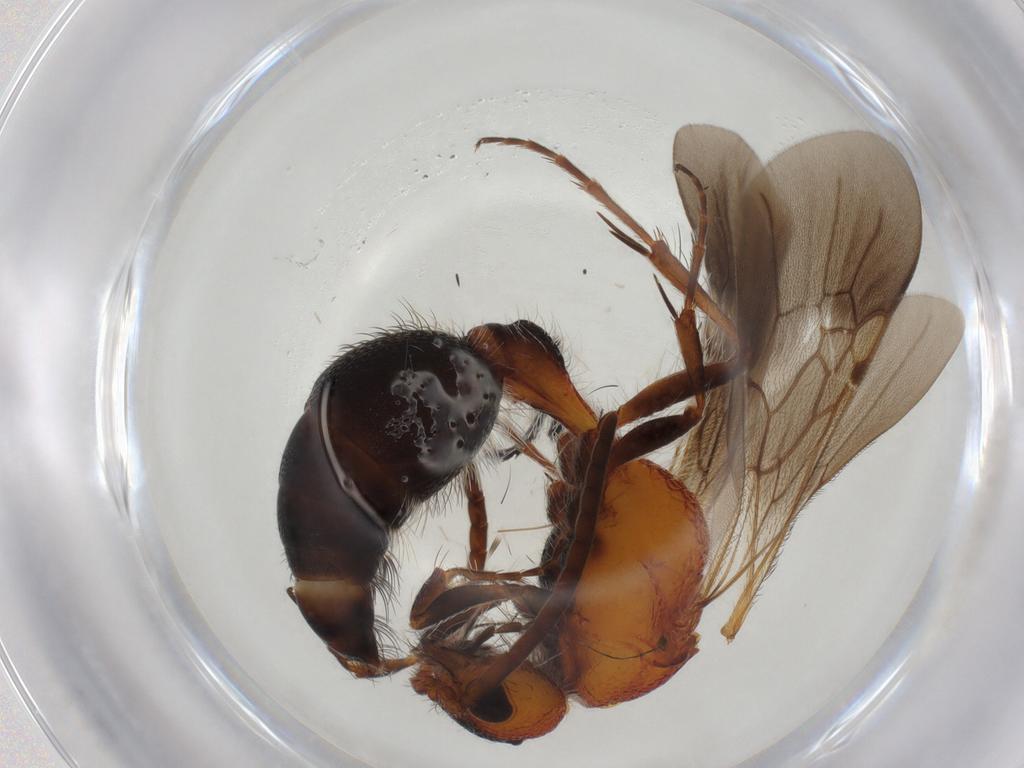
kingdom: Animalia
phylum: Arthropoda
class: Insecta
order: Hymenoptera
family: Mutillidae
